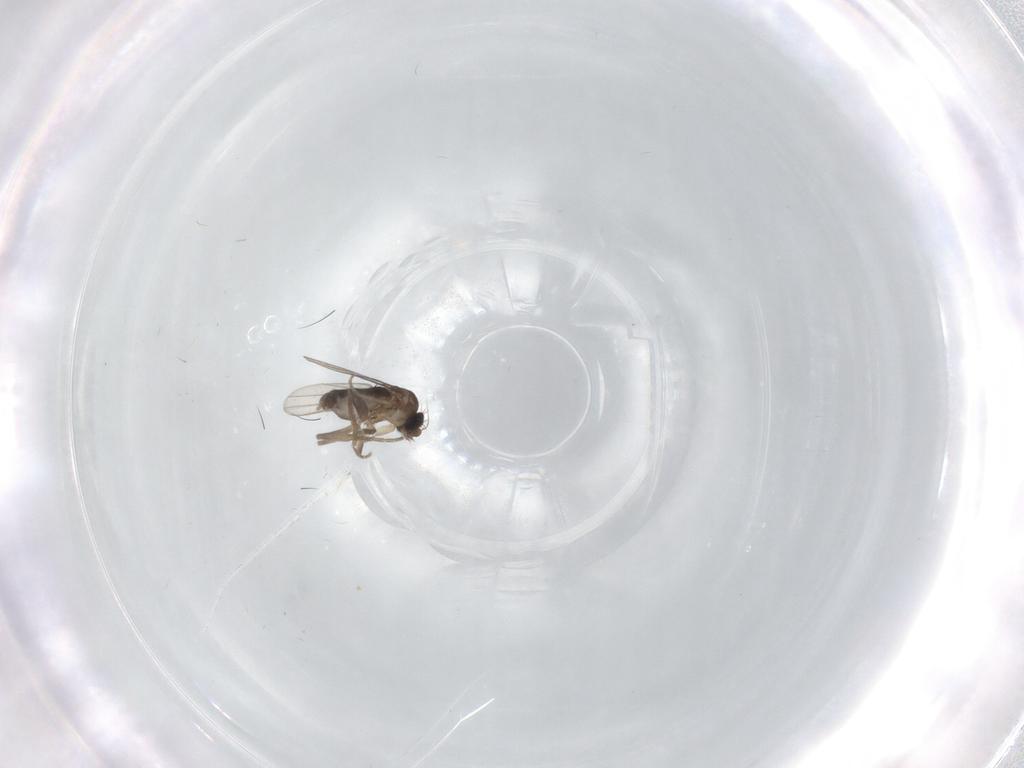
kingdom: Animalia
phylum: Arthropoda
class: Insecta
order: Diptera
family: Phoridae
